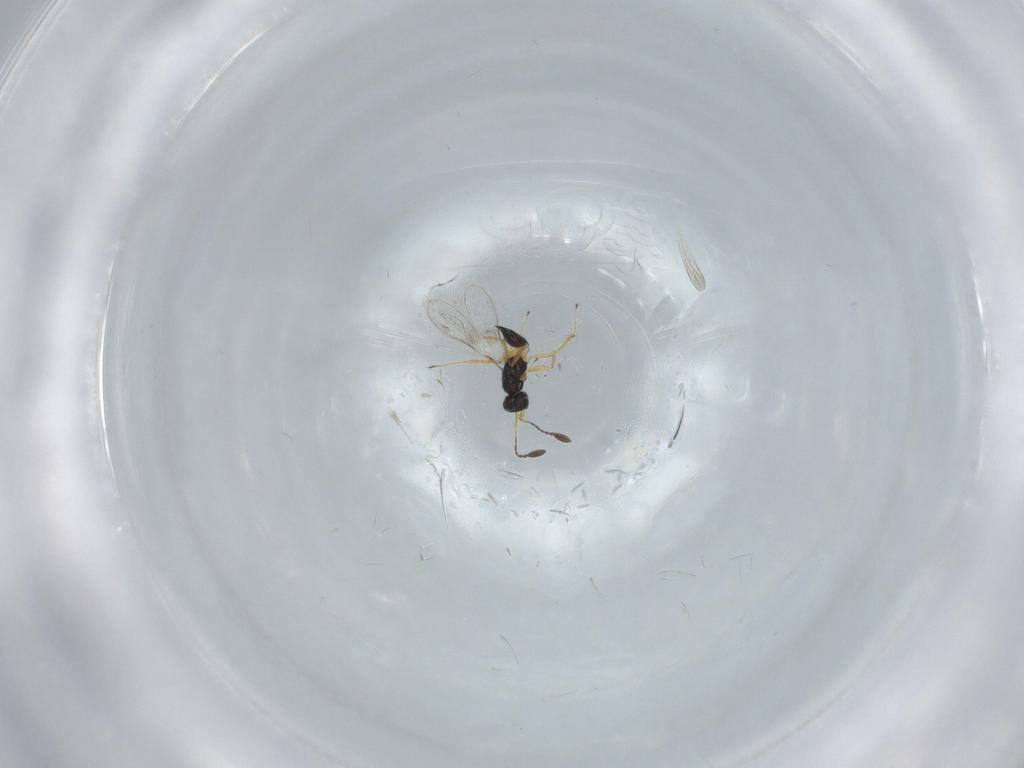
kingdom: Animalia
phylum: Arthropoda
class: Insecta
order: Hymenoptera
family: Mymaridae
